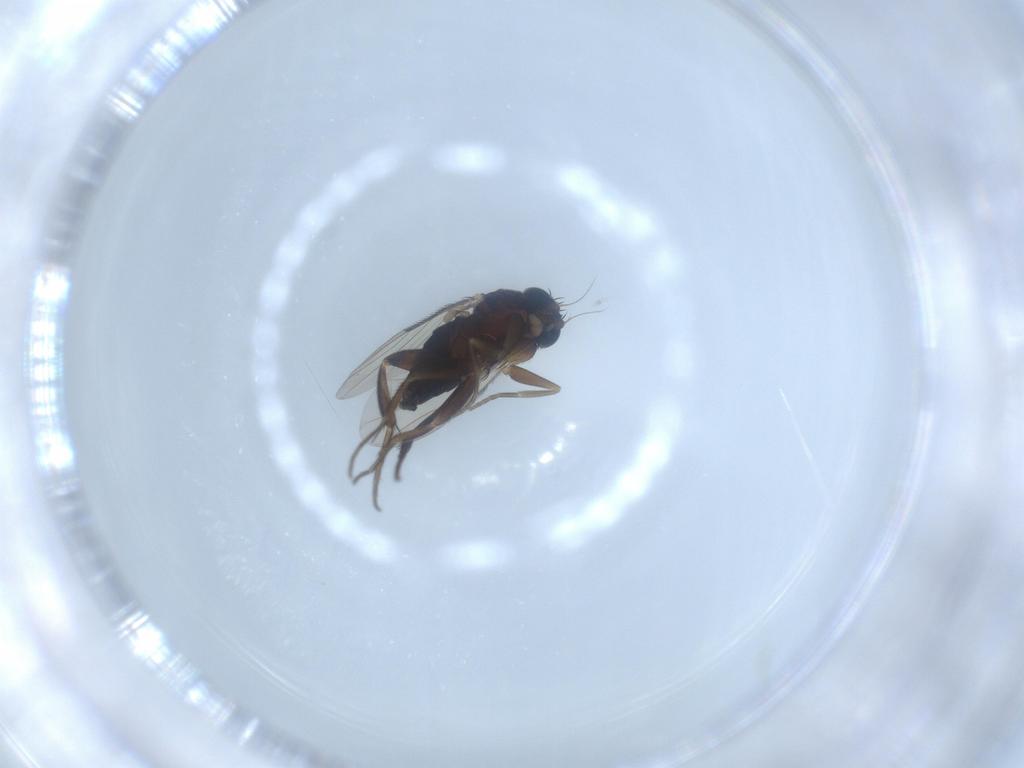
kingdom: Animalia
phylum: Arthropoda
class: Insecta
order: Diptera
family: Phoridae
